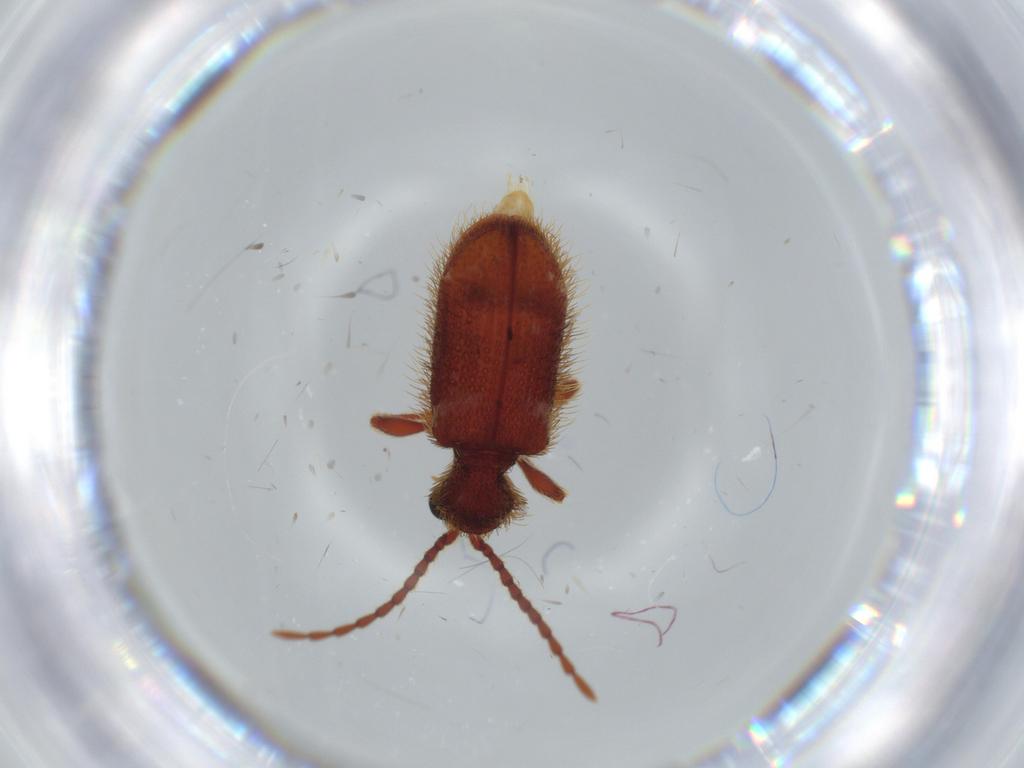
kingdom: Animalia
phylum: Arthropoda
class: Insecta
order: Coleoptera
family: Ptinidae
